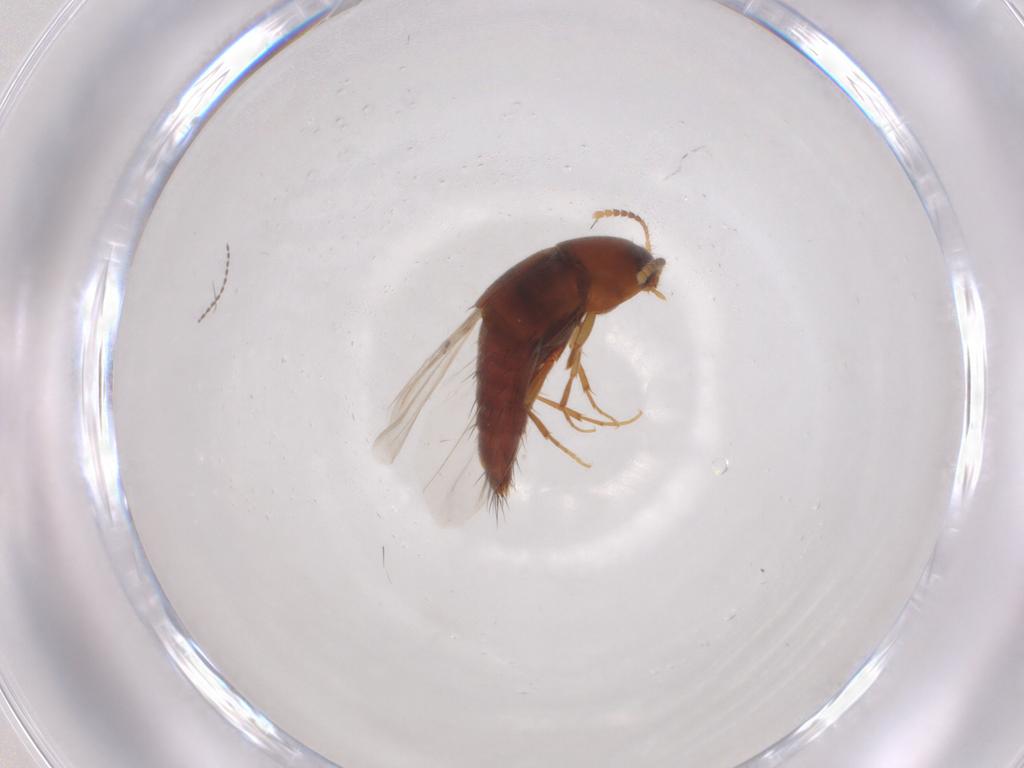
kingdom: Animalia
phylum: Arthropoda
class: Insecta
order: Coleoptera
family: Staphylinidae
